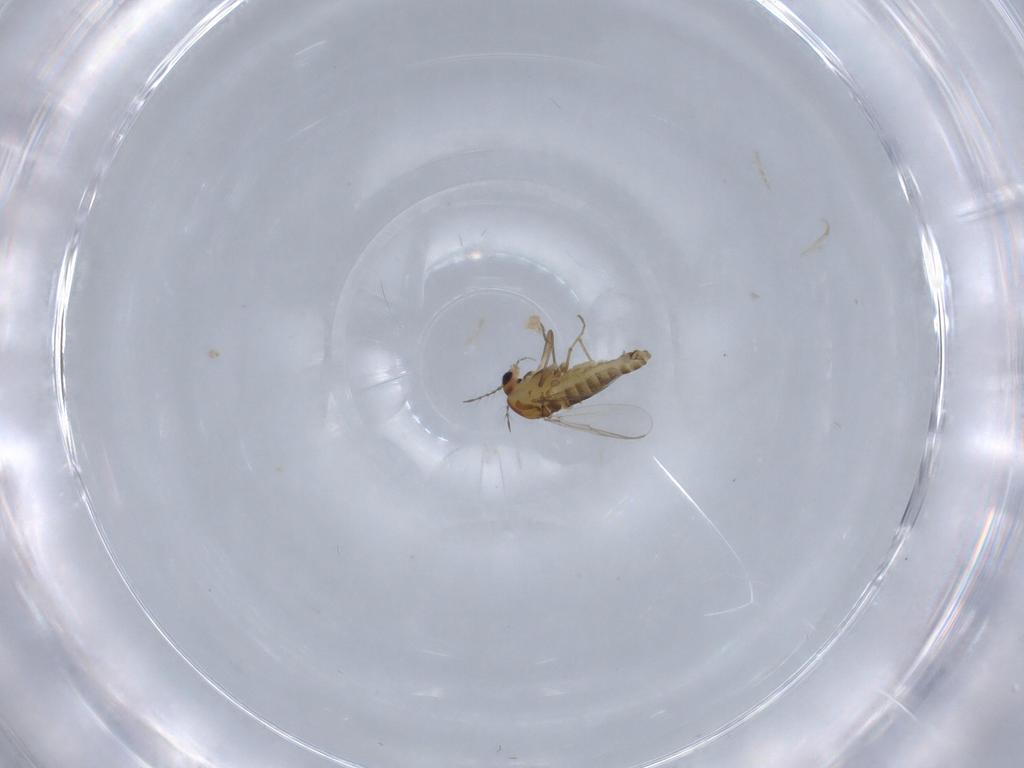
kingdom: Animalia
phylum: Arthropoda
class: Insecta
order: Diptera
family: Chironomidae
